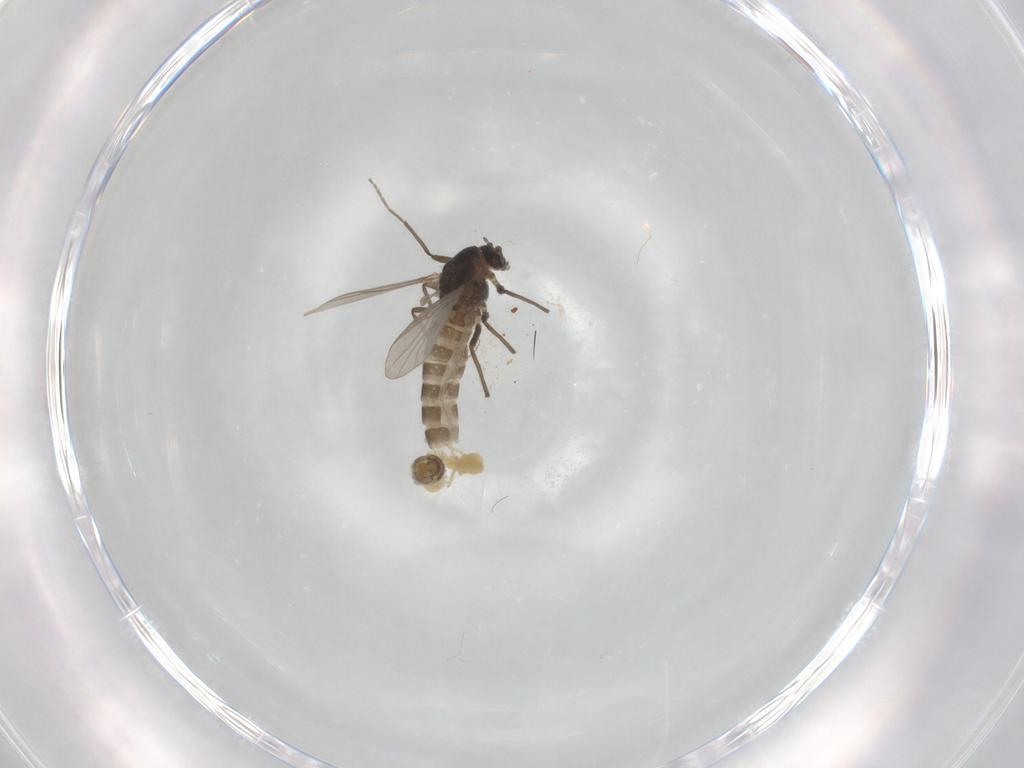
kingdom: Animalia
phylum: Arthropoda
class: Insecta
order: Diptera
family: Chironomidae
